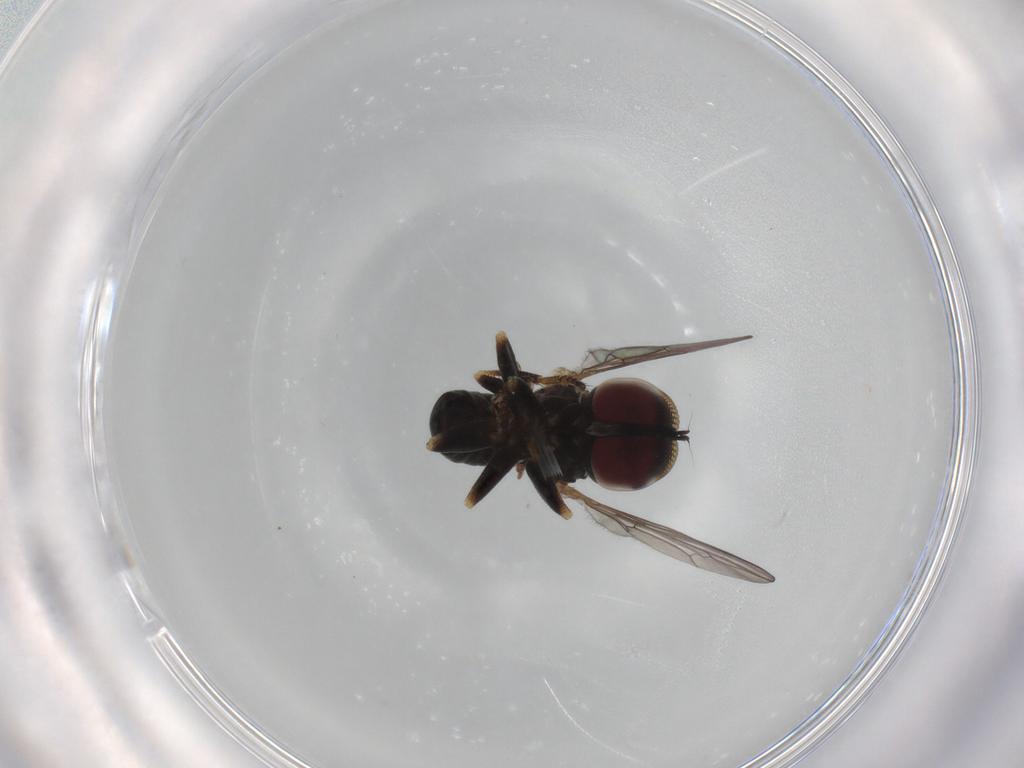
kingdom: Animalia
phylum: Arthropoda
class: Insecta
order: Diptera
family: Pipunculidae
